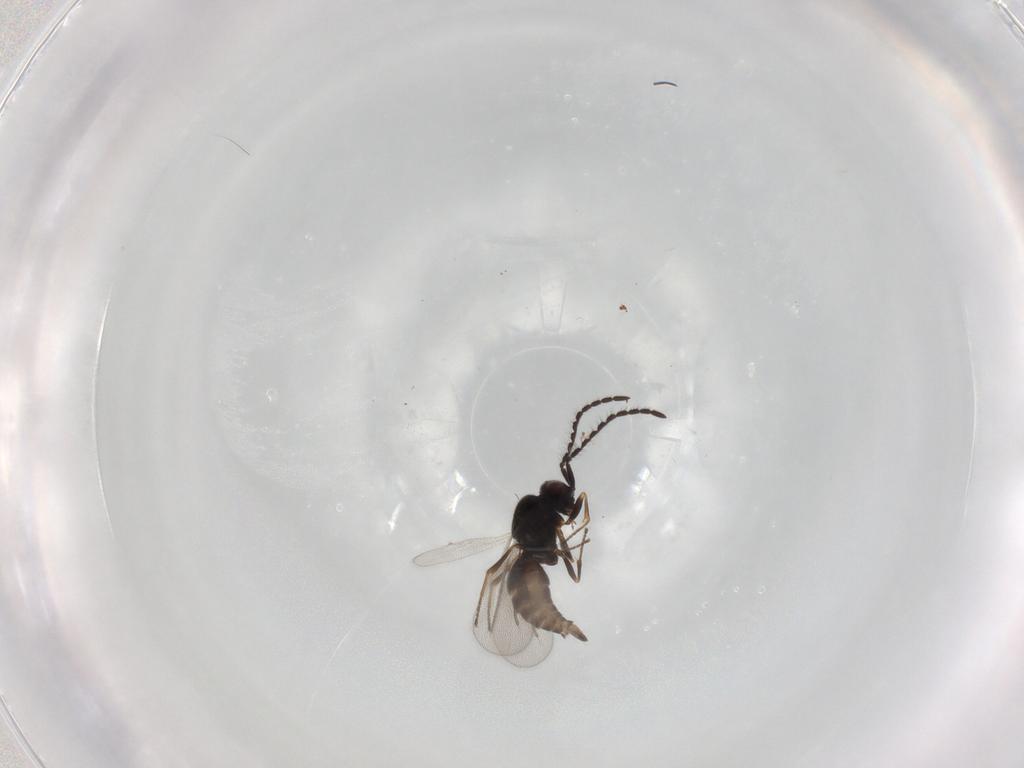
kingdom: Animalia
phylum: Arthropoda
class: Insecta
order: Hymenoptera
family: Megaspilidae
